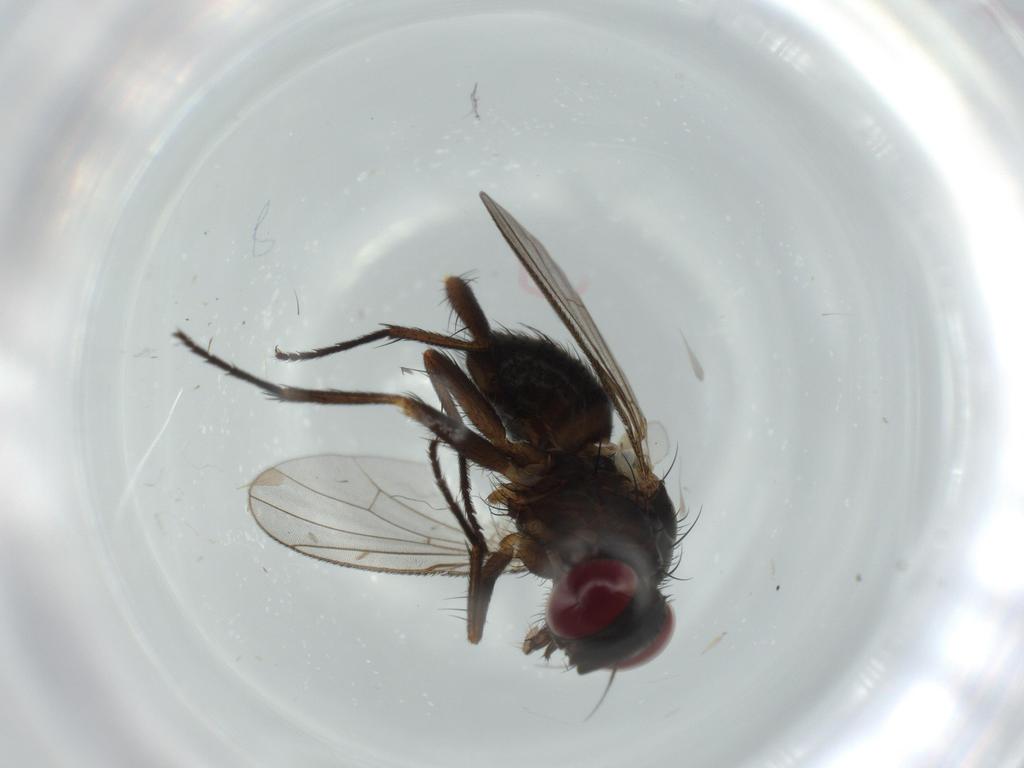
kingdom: Animalia
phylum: Arthropoda
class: Insecta
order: Diptera
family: Muscidae
